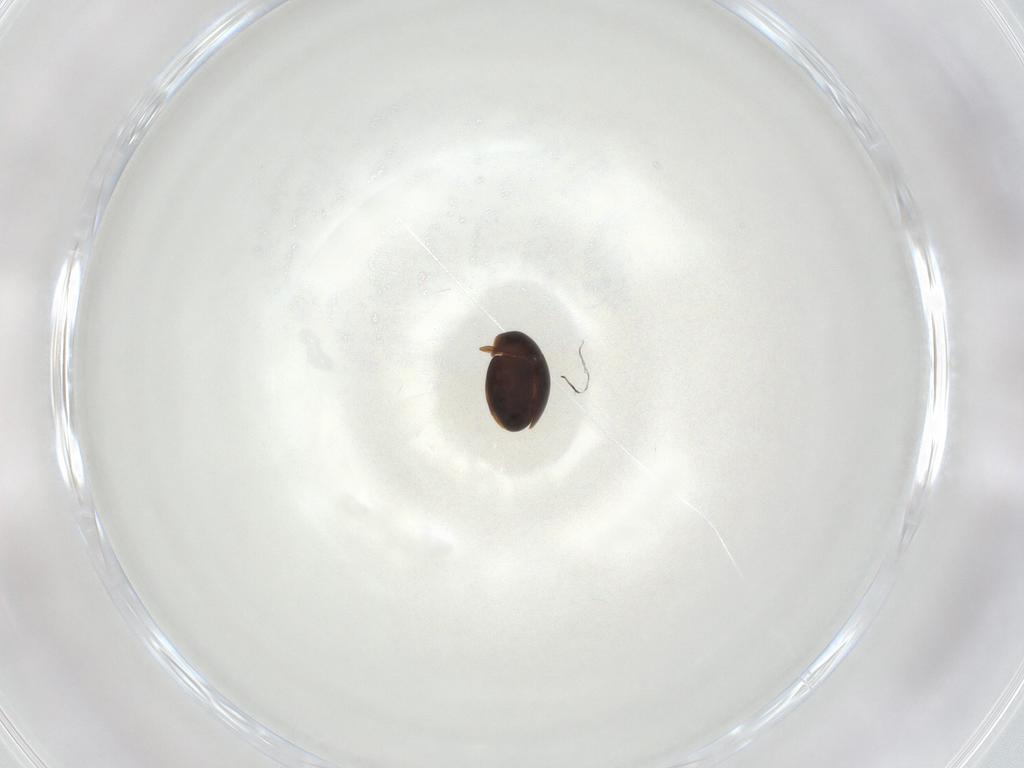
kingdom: Animalia
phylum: Arthropoda
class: Insecta
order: Coleoptera
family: Corylophidae
